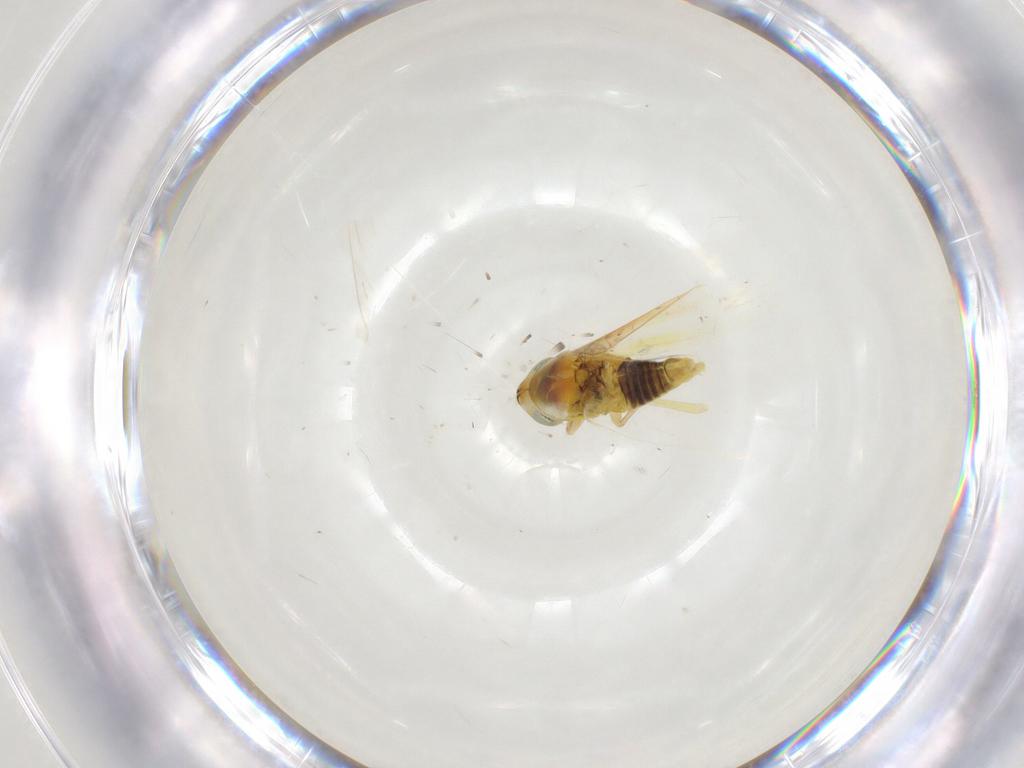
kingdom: Animalia
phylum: Arthropoda
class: Insecta
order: Hemiptera
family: Cicadellidae
